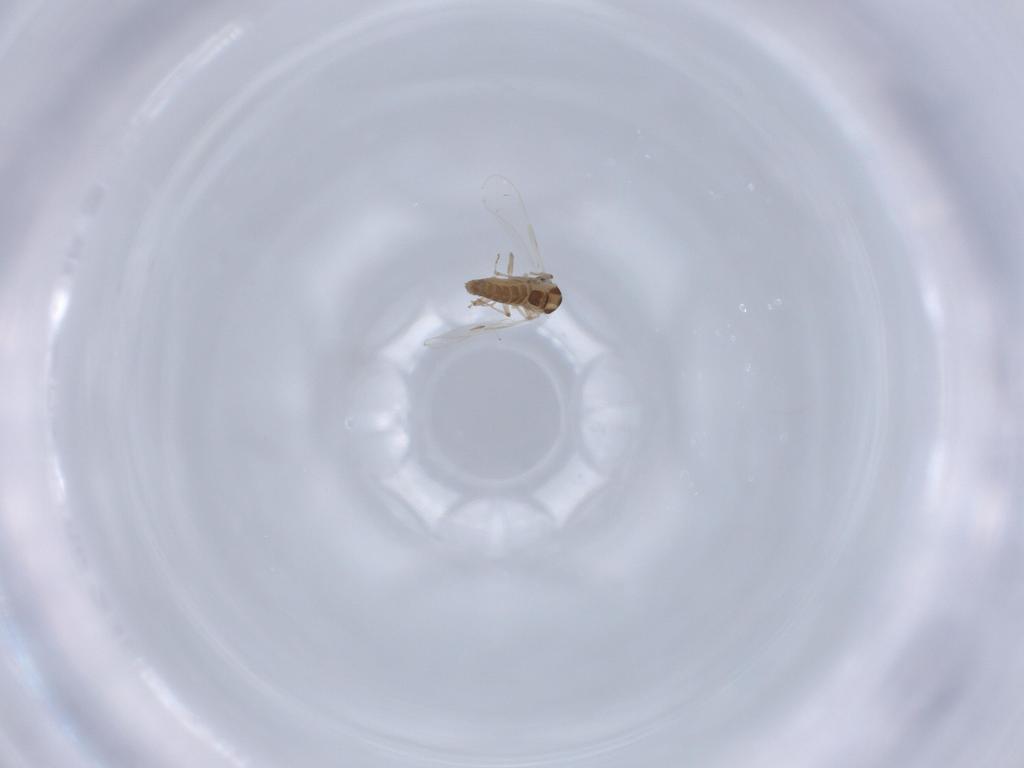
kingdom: Animalia
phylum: Arthropoda
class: Insecta
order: Diptera
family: Chironomidae
